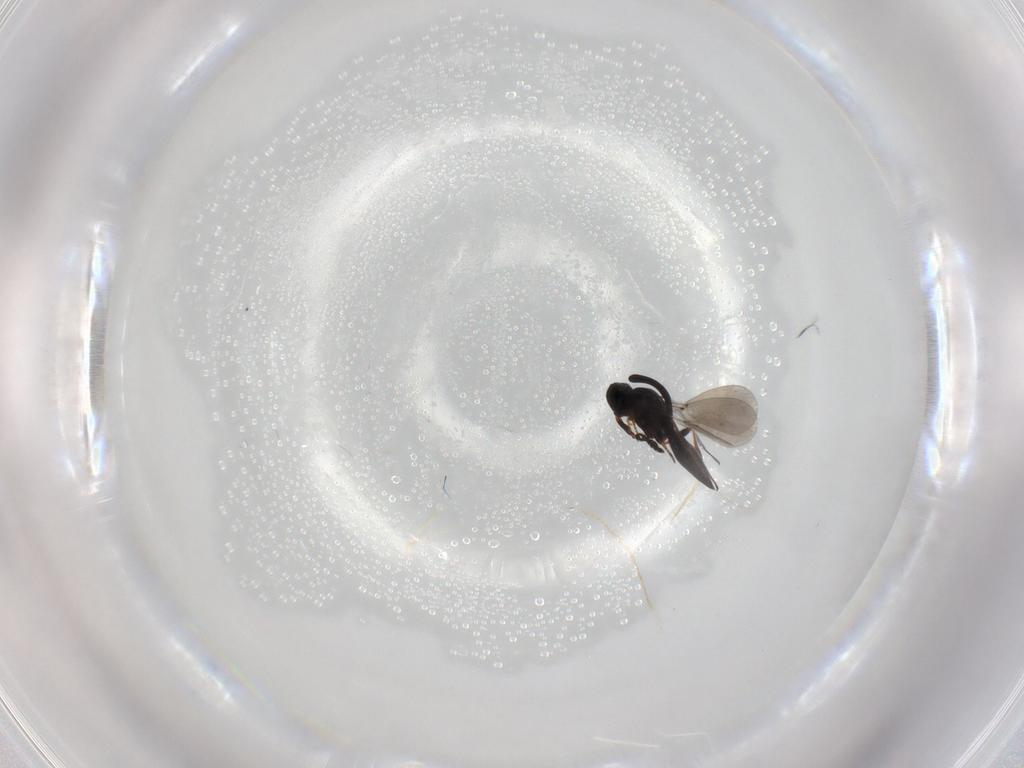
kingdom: Animalia
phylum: Arthropoda
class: Insecta
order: Hymenoptera
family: Platygastridae
